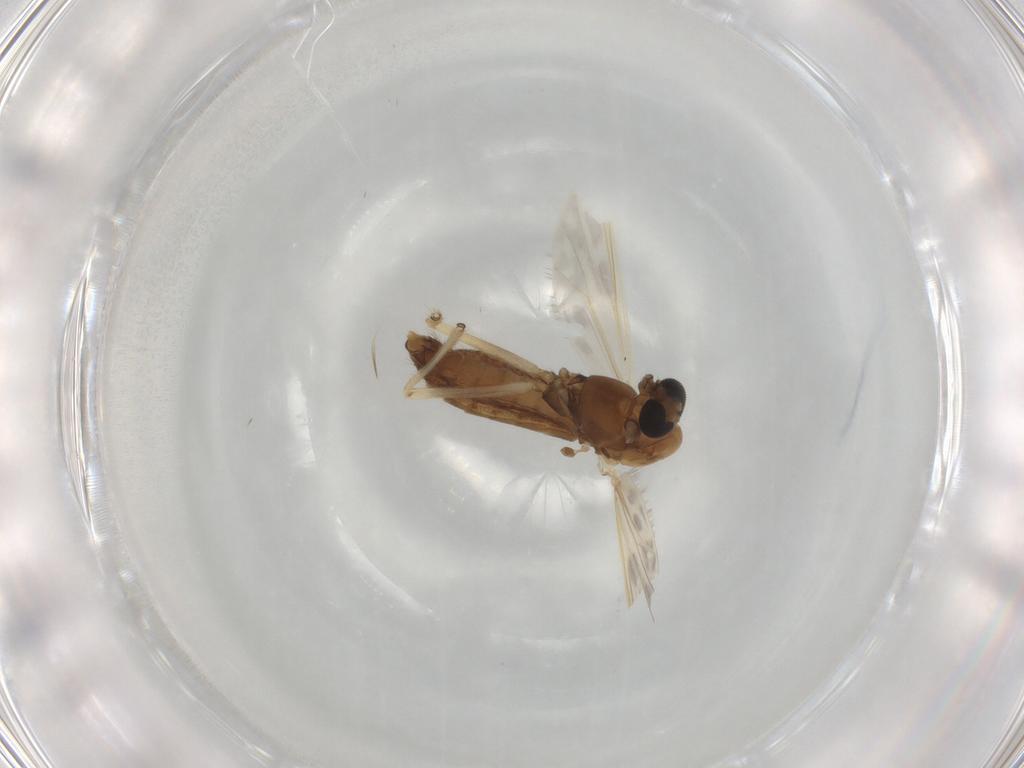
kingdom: Animalia
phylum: Arthropoda
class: Insecta
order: Diptera
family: Chironomidae
